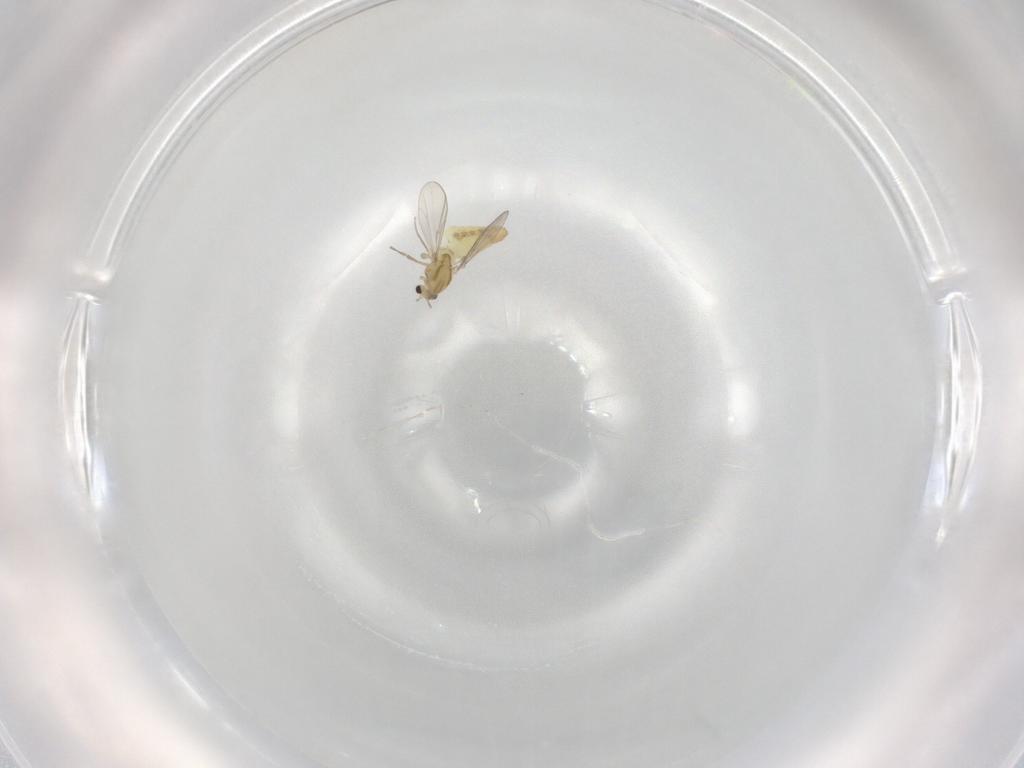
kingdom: Animalia
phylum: Arthropoda
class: Insecta
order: Diptera
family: Chironomidae
